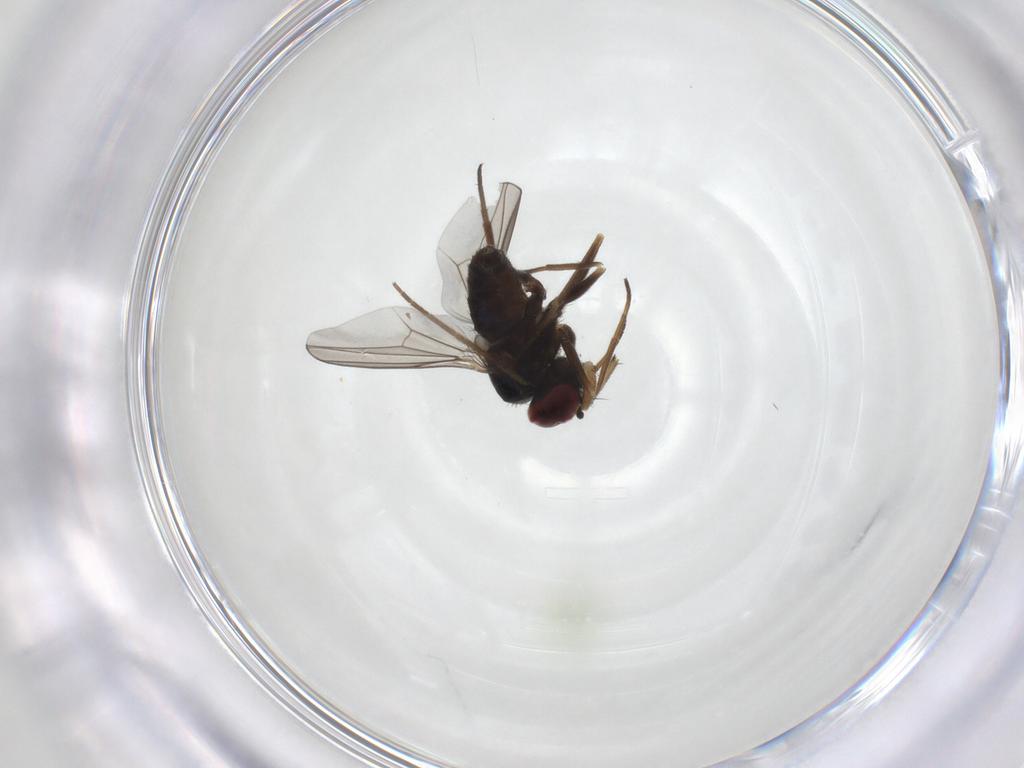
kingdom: Animalia
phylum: Arthropoda
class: Insecta
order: Diptera
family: Dolichopodidae
